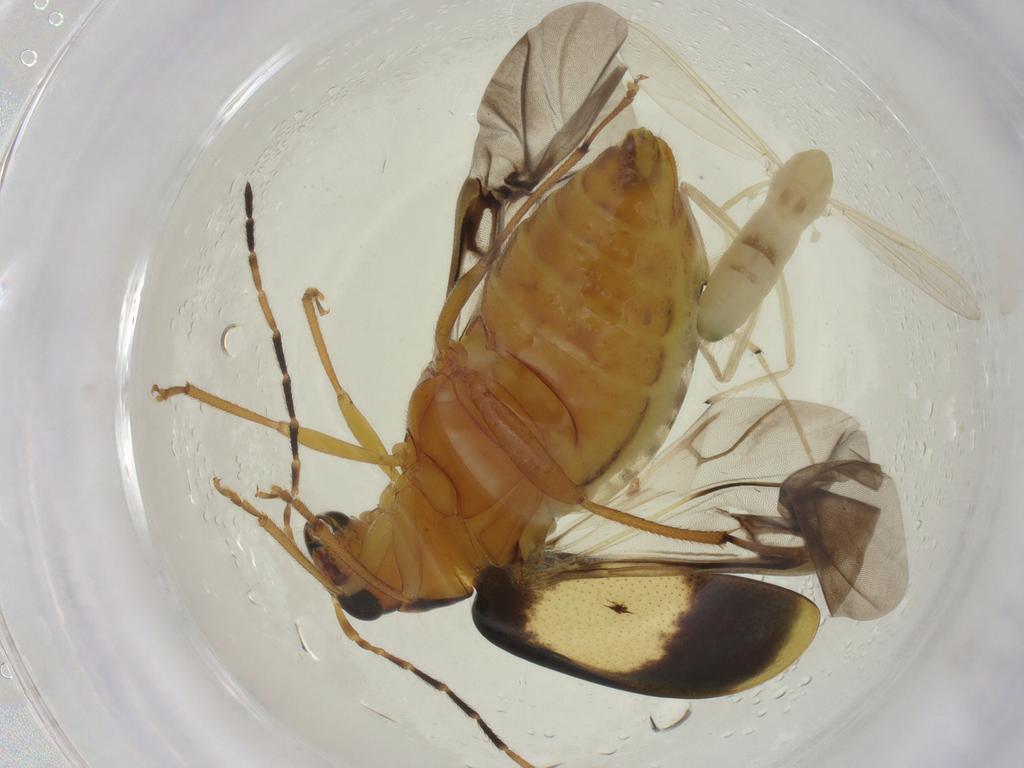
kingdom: Animalia
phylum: Arthropoda
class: Insecta
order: Coleoptera
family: Chrysomelidae
